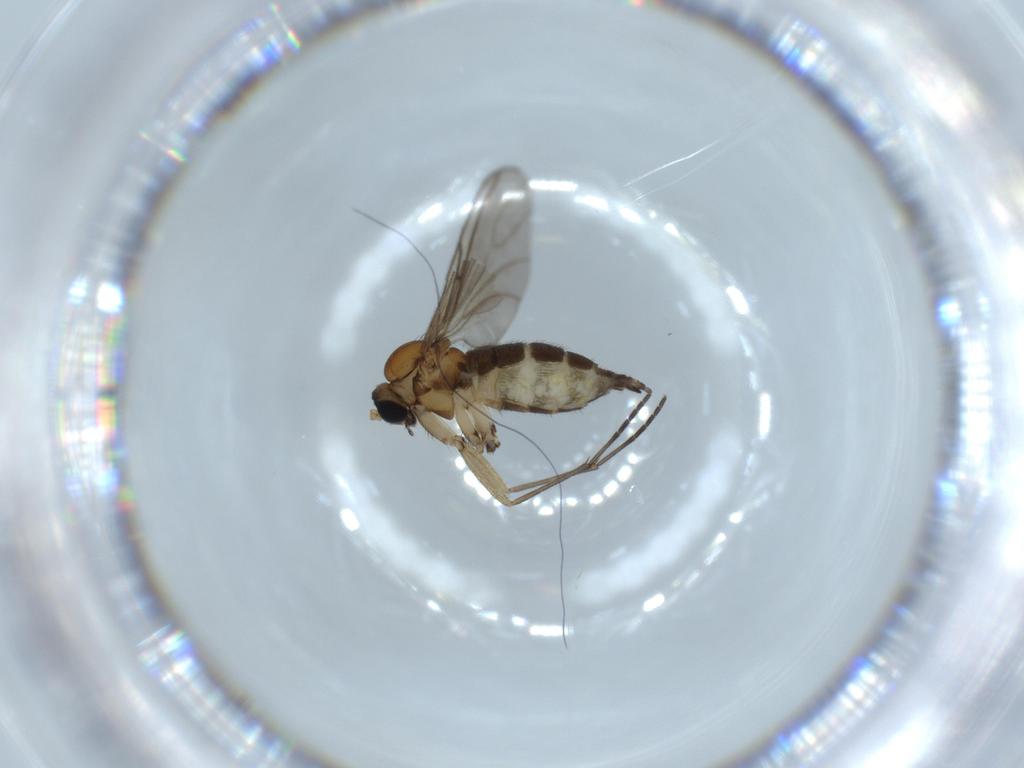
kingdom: Animalia
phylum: Arthropoda
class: Insecta
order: Diptera
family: Sciaridae
